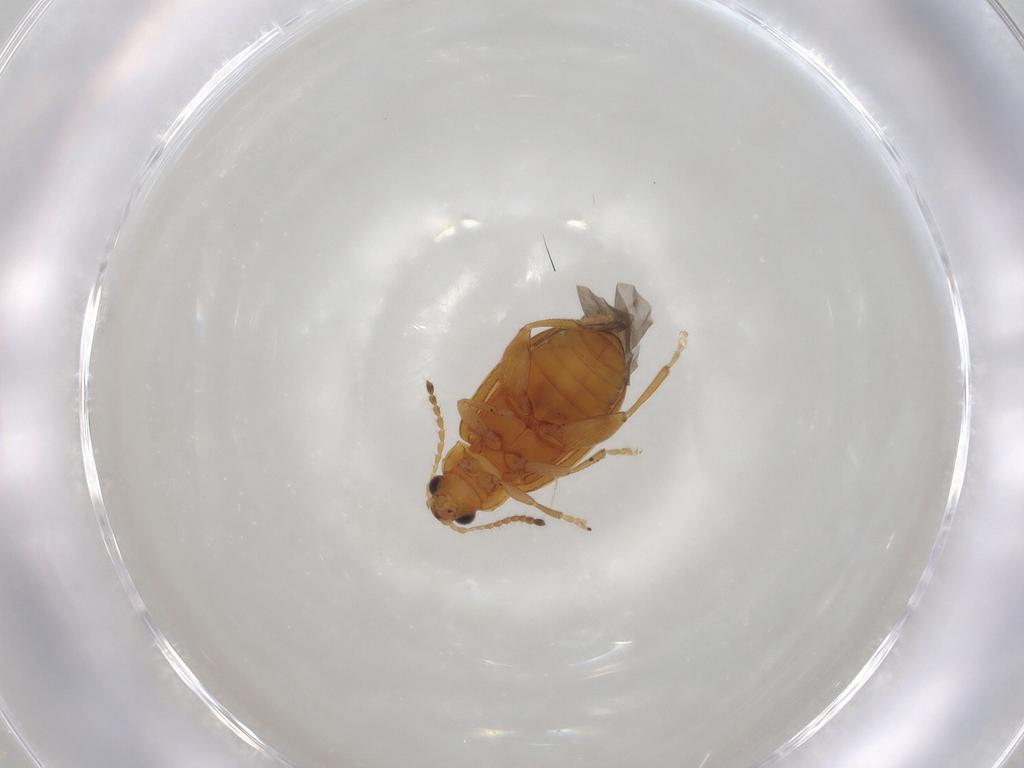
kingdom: Animalia
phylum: Arthropoda
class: Insecta
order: Coleoptera
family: Chrysomelidae
